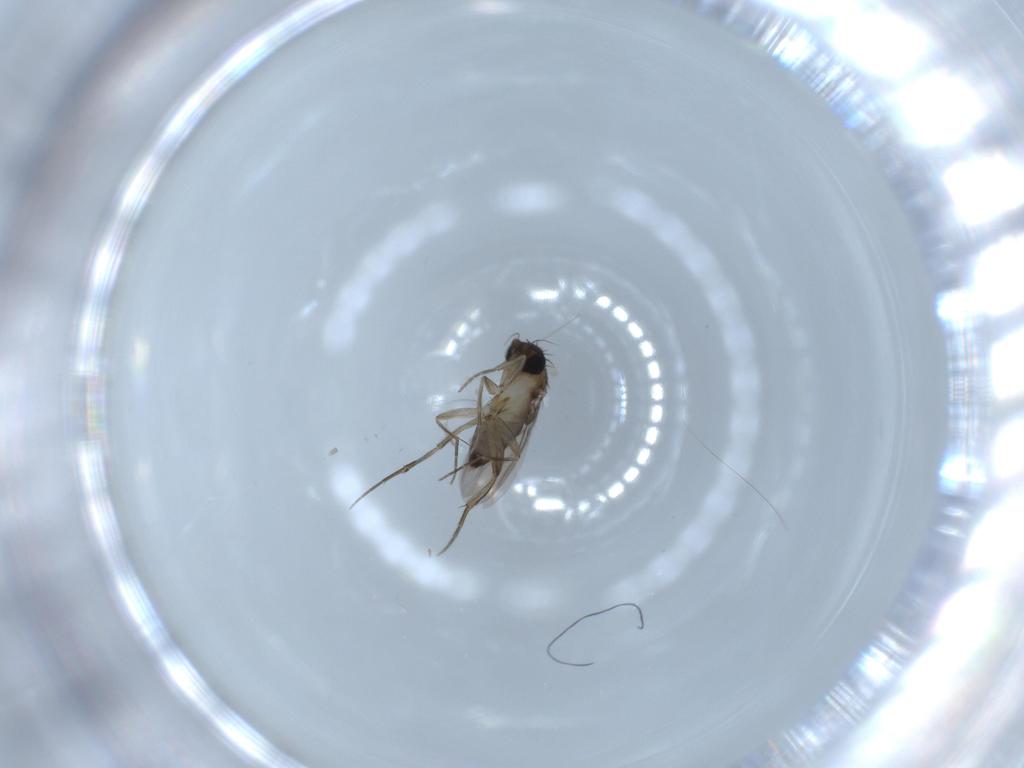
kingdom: Animalia
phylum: Arthropoda
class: Insecta
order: Diptera
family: Phoridae
